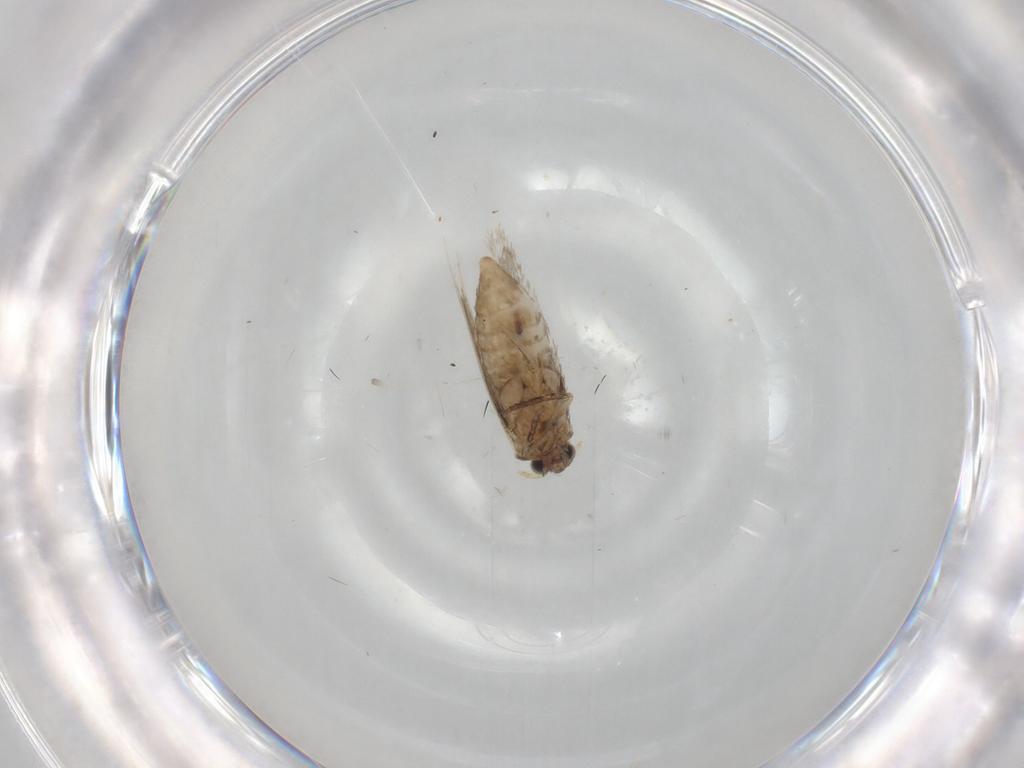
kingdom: Animalia
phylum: Arthropoda
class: Insecta
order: Lepidoptera
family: Nepticulidae
